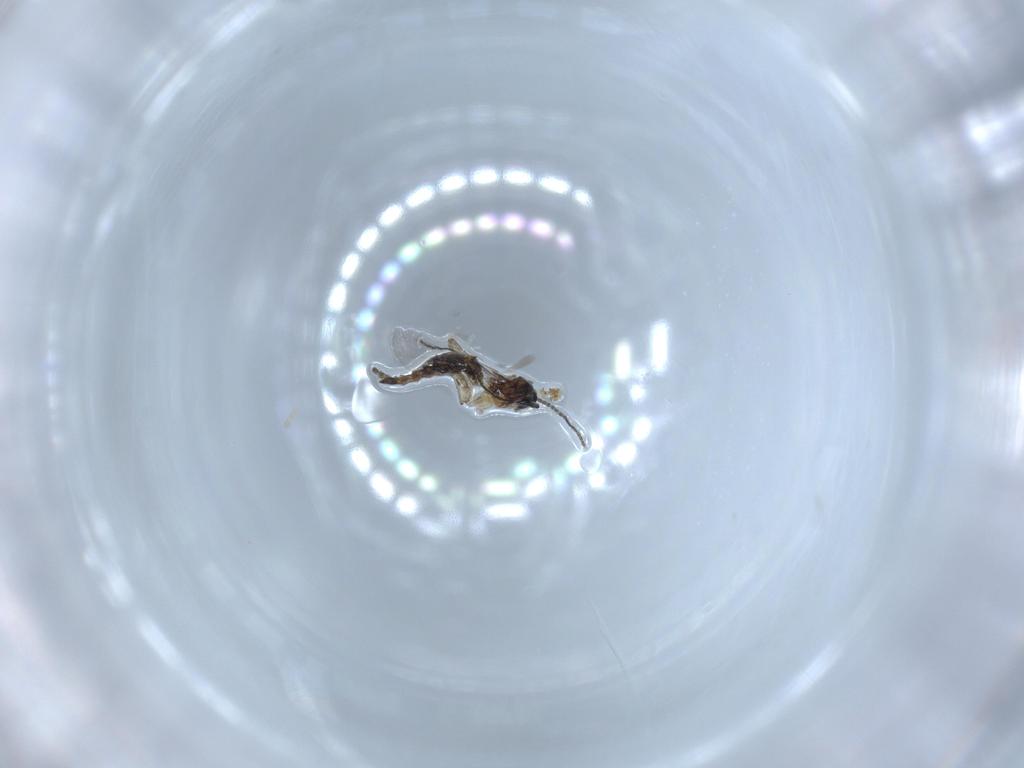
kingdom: Animalia
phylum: Arthropoda
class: Insecta
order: Diptera
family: Sciaridae
